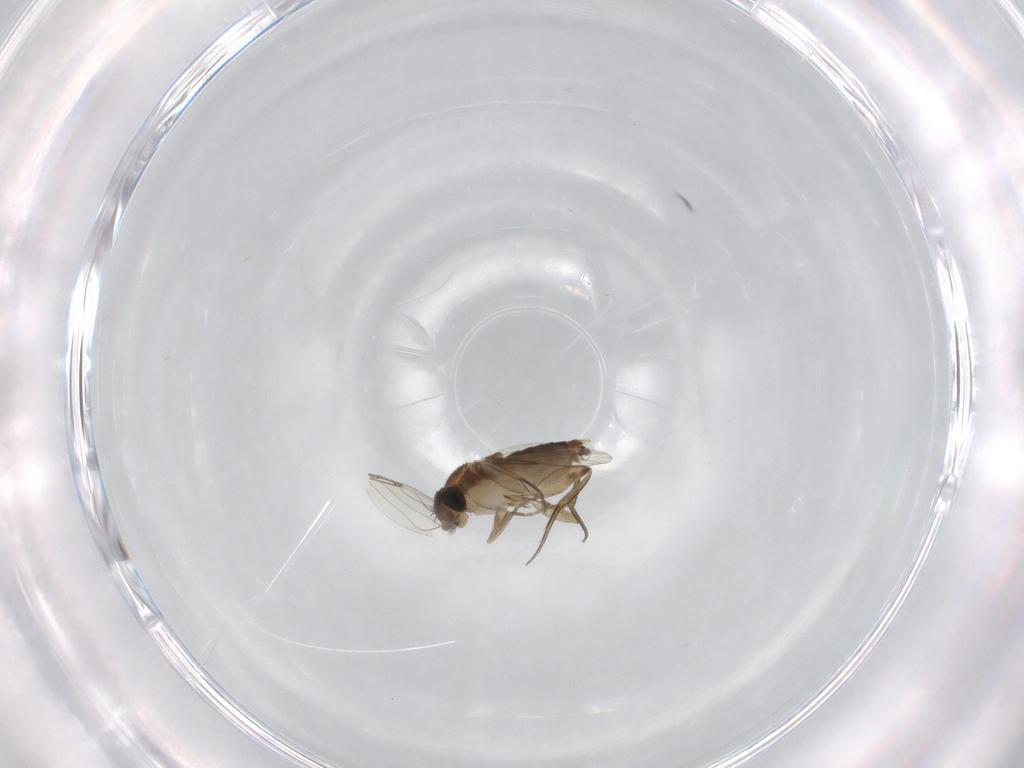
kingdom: Animalia
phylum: Arthropoda
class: Insecta
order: Diptera
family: Phoridae
